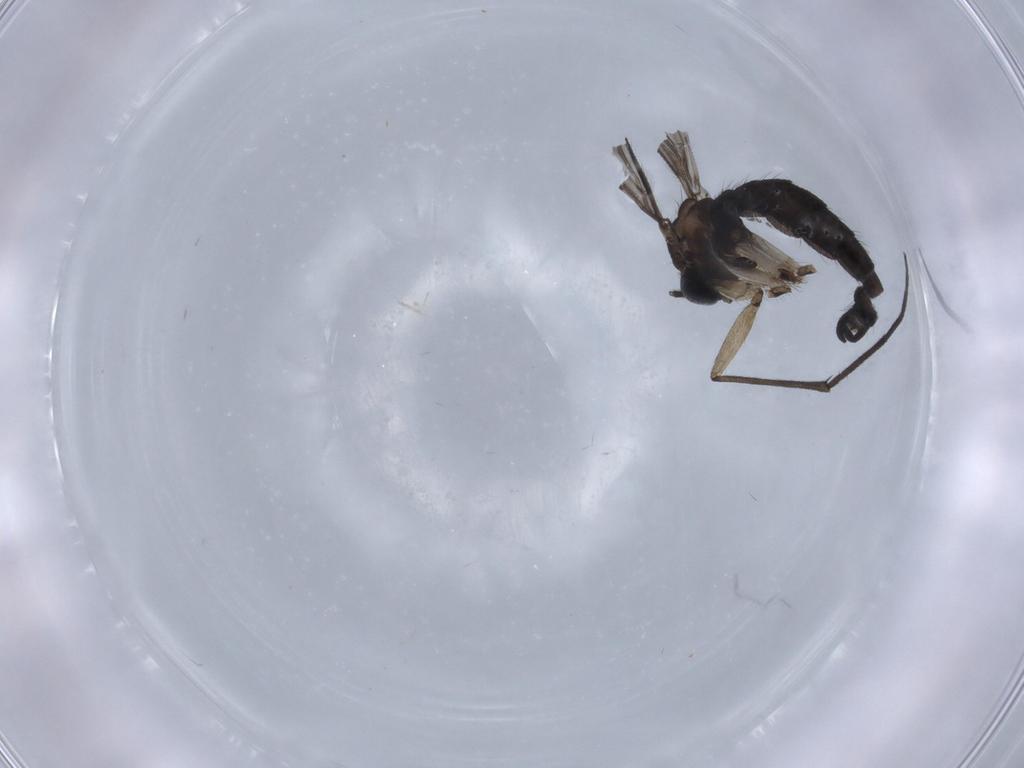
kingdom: Animalia
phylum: Arthropoda
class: Insecta
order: Diptera
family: Sciaridae
